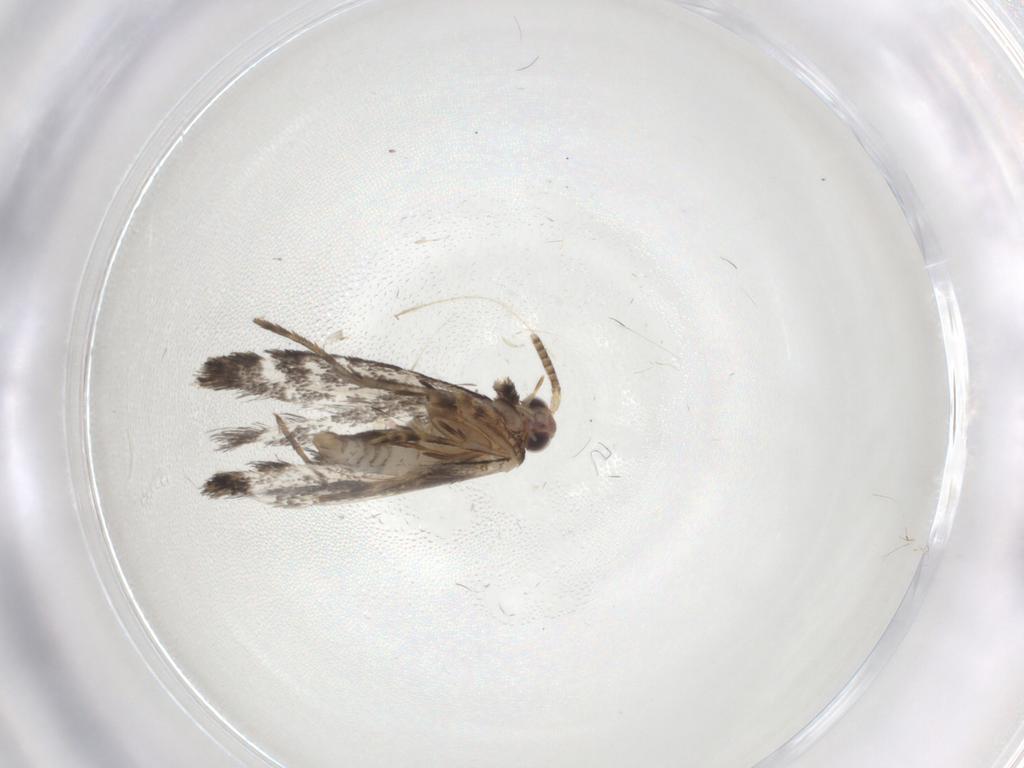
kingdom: Animalia
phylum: Arthropoda
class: Insecta
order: Lepidoptera
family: Tineidae
